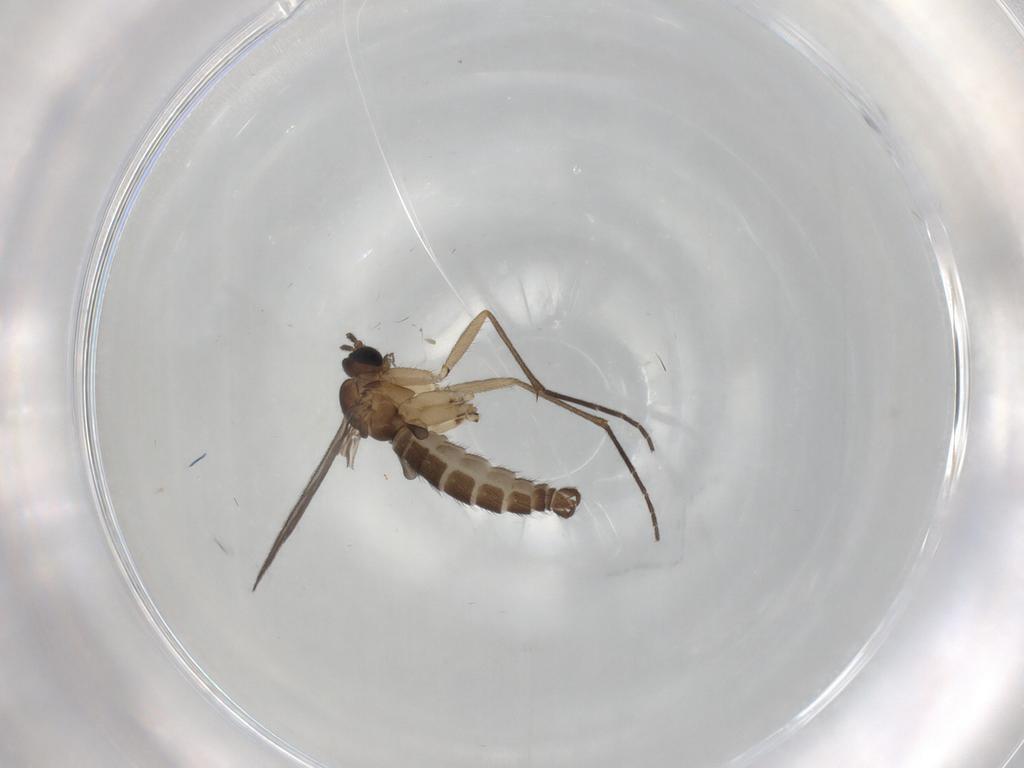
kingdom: Animalia
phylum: Arthropoda
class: Insecta
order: Diptera
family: Sciaridae
